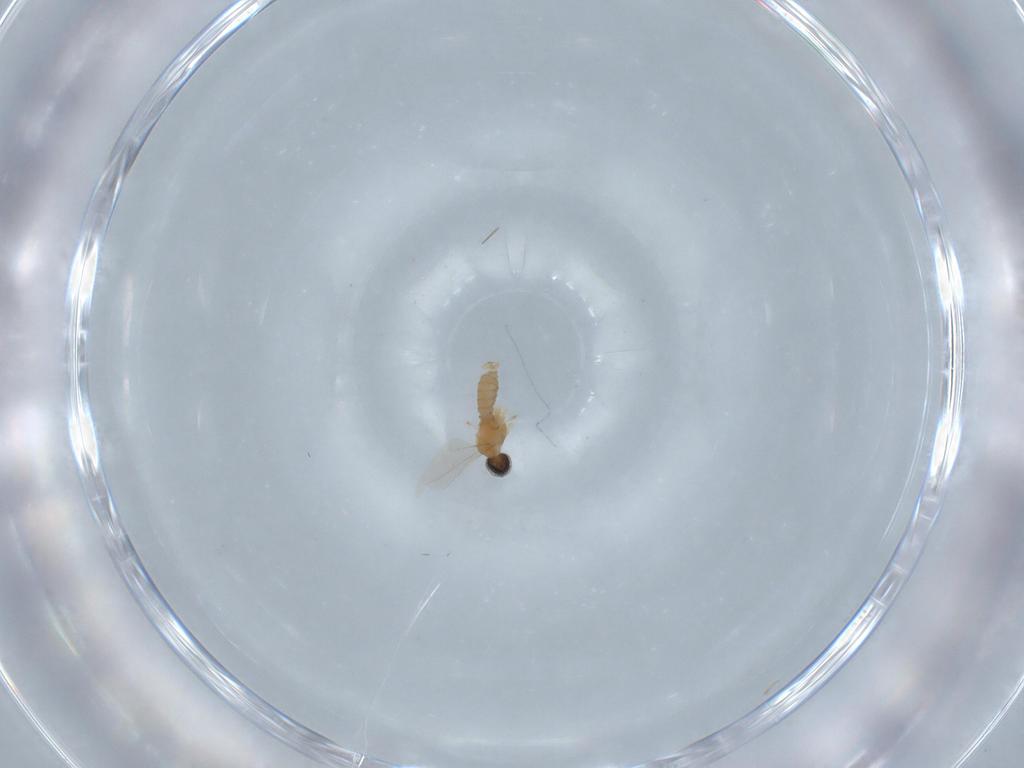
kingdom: Animalia
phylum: Arthropoda
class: Insecta
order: Diptera
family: Cecidomyiidae
